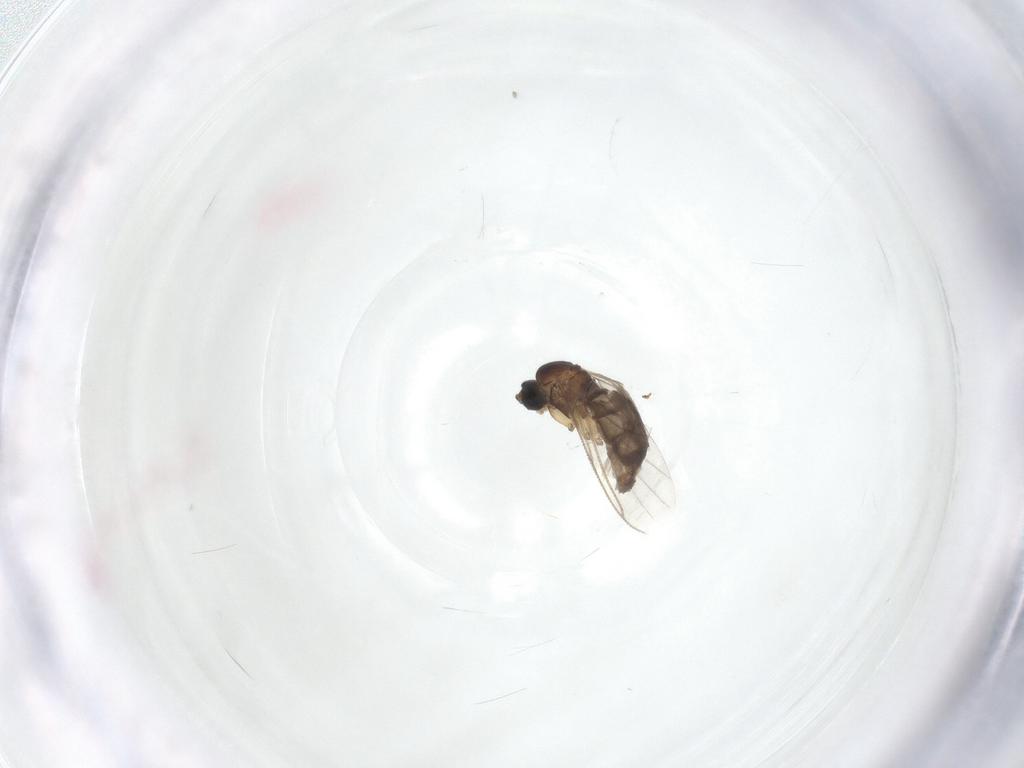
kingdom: Animalia
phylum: Arthropoda
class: Insecta
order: Diptera
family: Sciaridae
